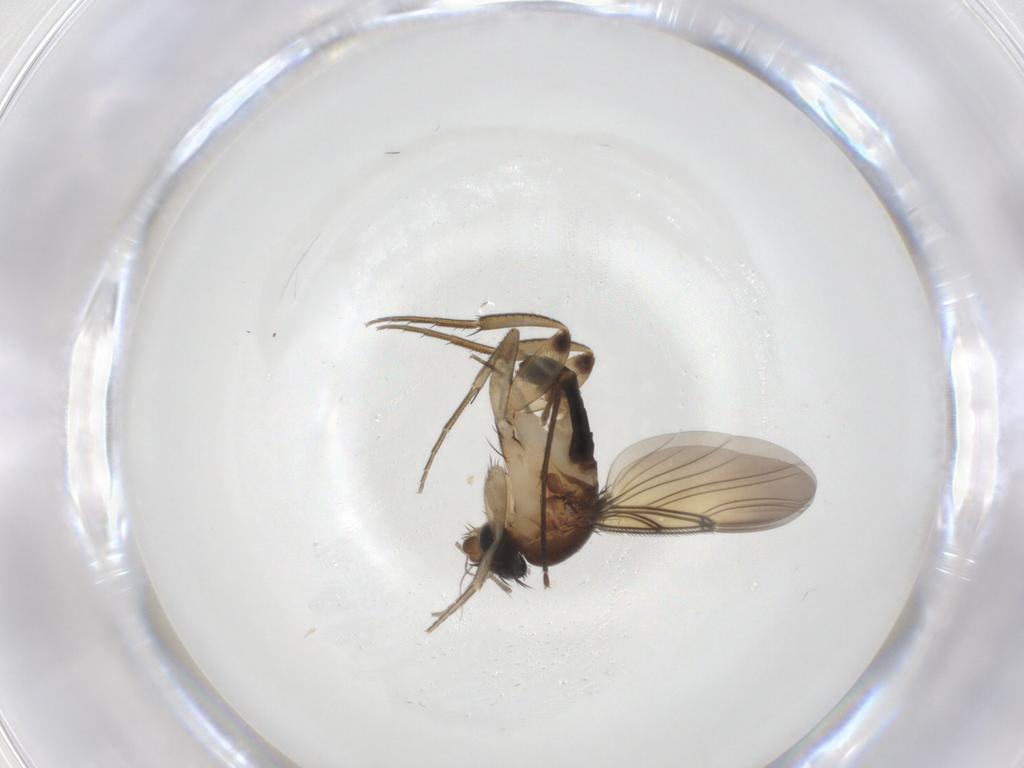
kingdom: Animalia
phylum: Arthropoda
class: Insecta
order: Diptera
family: Phoridae
